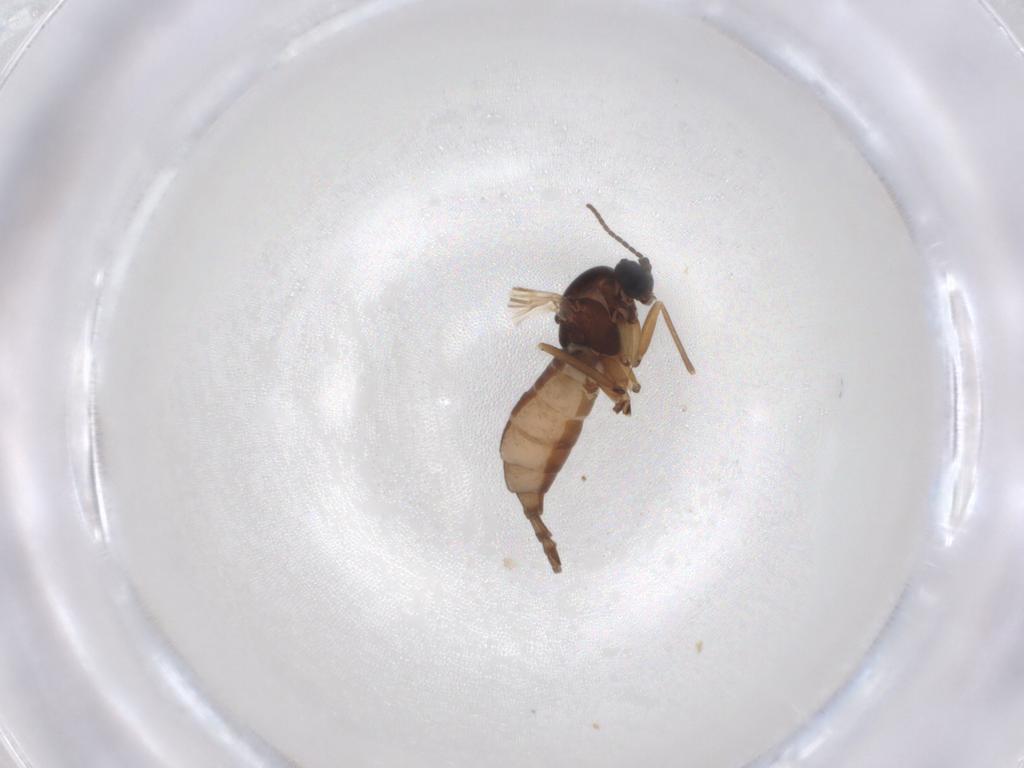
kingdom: Animalia
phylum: Arthropoda
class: Insecta
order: Diptera
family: Sciaridae
